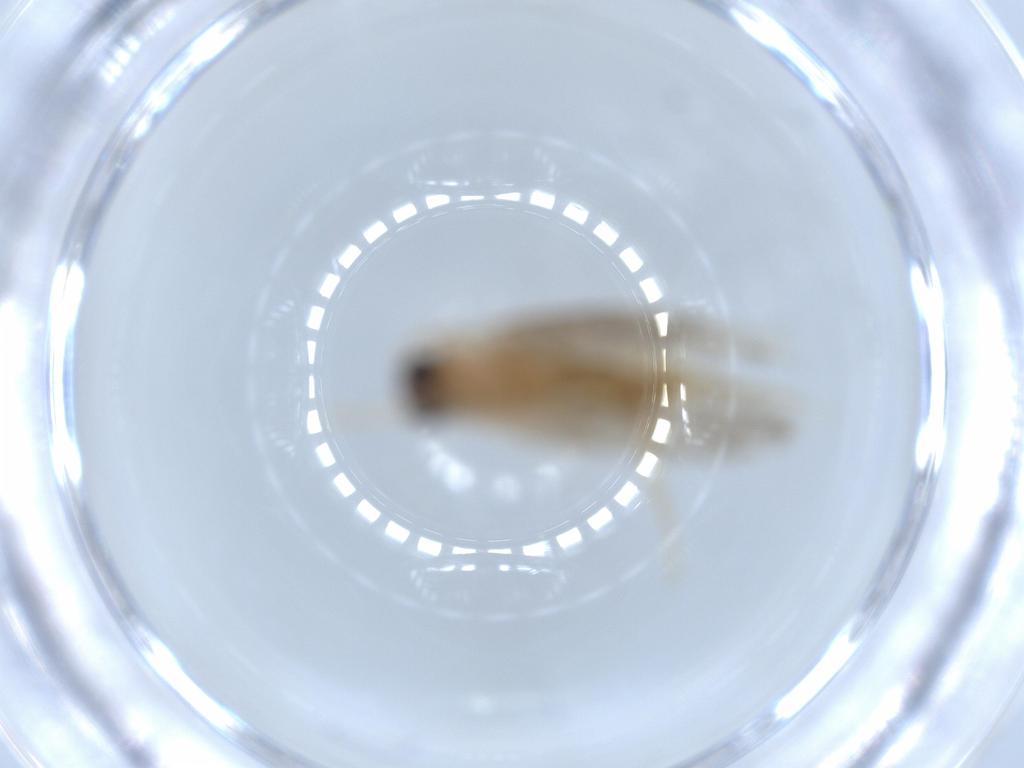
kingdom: Animalia
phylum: Arthropoda
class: Insecta
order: Lepidoptera
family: Tineidae
